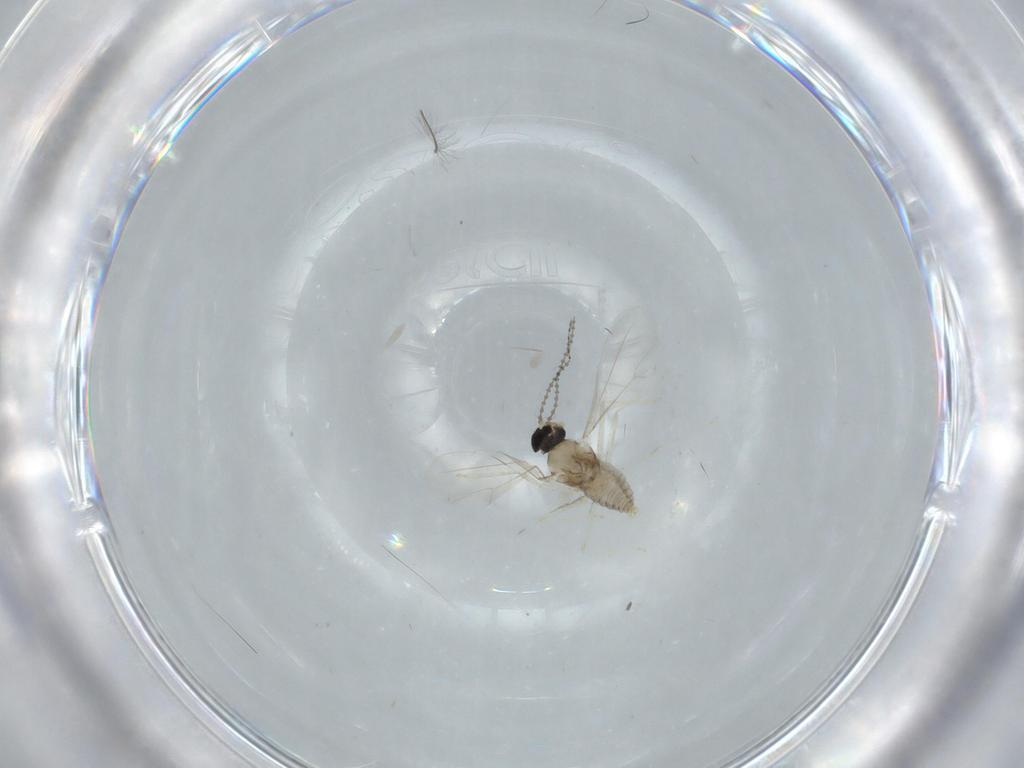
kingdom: Animalia
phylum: Arthropoda
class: Insecta
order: Diptera
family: Cecidomyiidae
